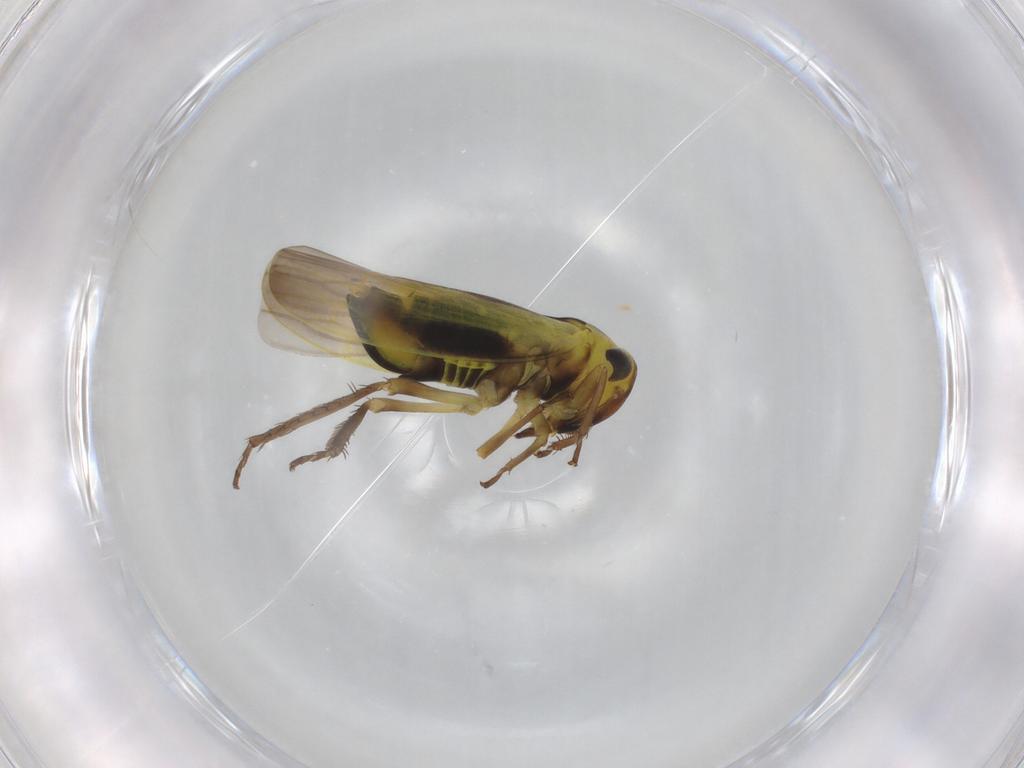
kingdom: Animalia
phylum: Arthropoda
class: Insecta
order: Hemiptera
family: Cicadellidae
